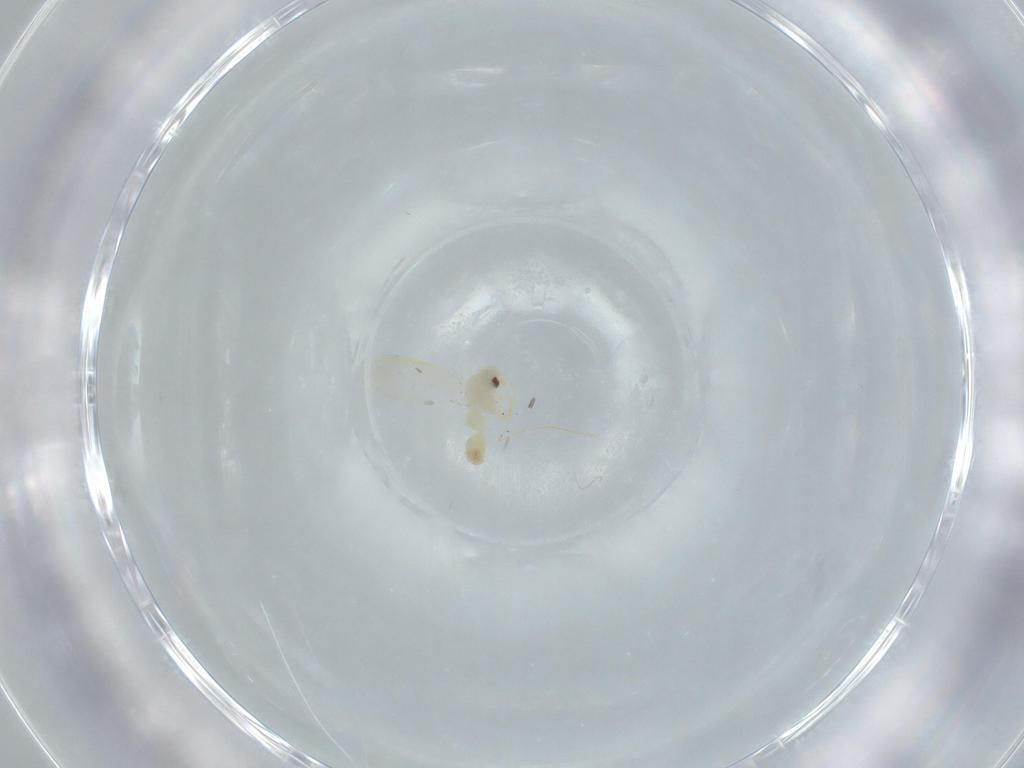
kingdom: Animalia
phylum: Arthropoda
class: Insecta
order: Hemiptera
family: Aleyrodidae
